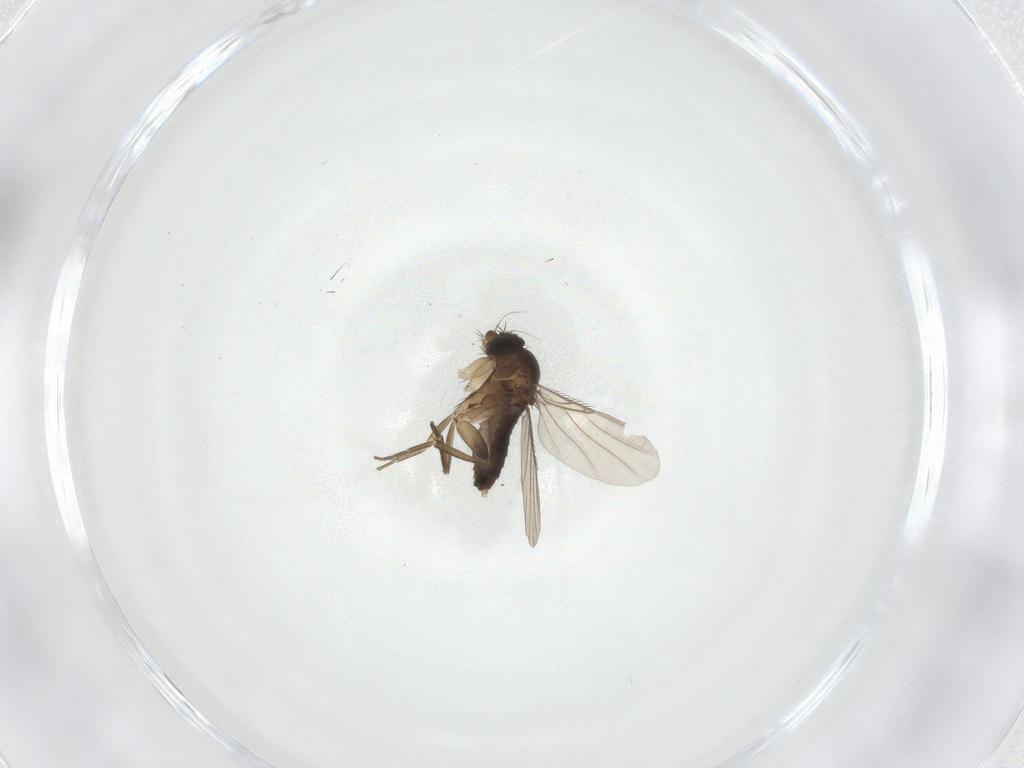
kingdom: Animalia
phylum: Arthropoda
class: Insecta
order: Diptera
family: Phoridae
